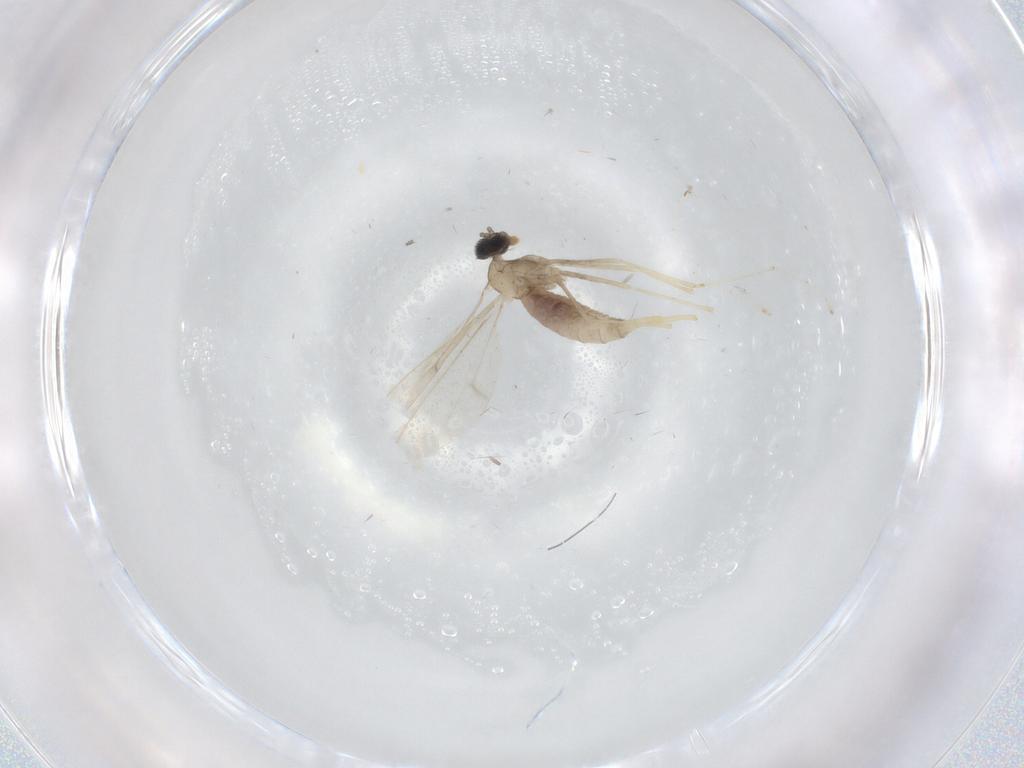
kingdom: Animalia
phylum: Arthropoda
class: Insecta
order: Diptera
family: Cecidomyiidae
